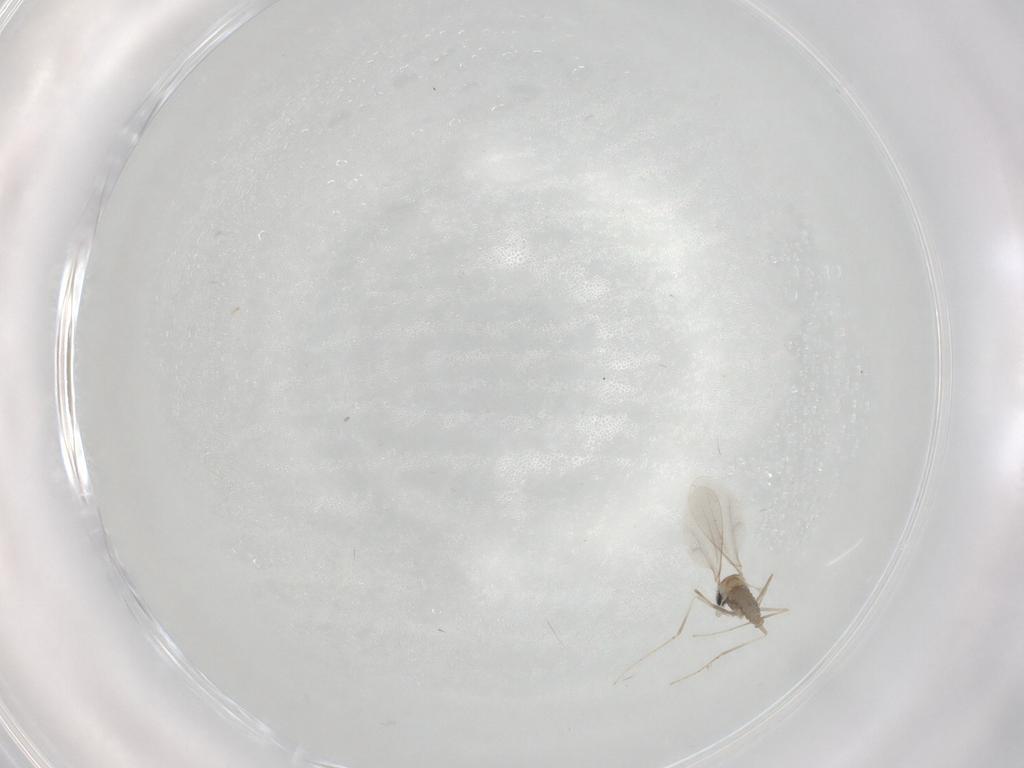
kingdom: Animalia
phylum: Arthropoda
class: Insecta
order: Diptera
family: Cecidomyiidae
